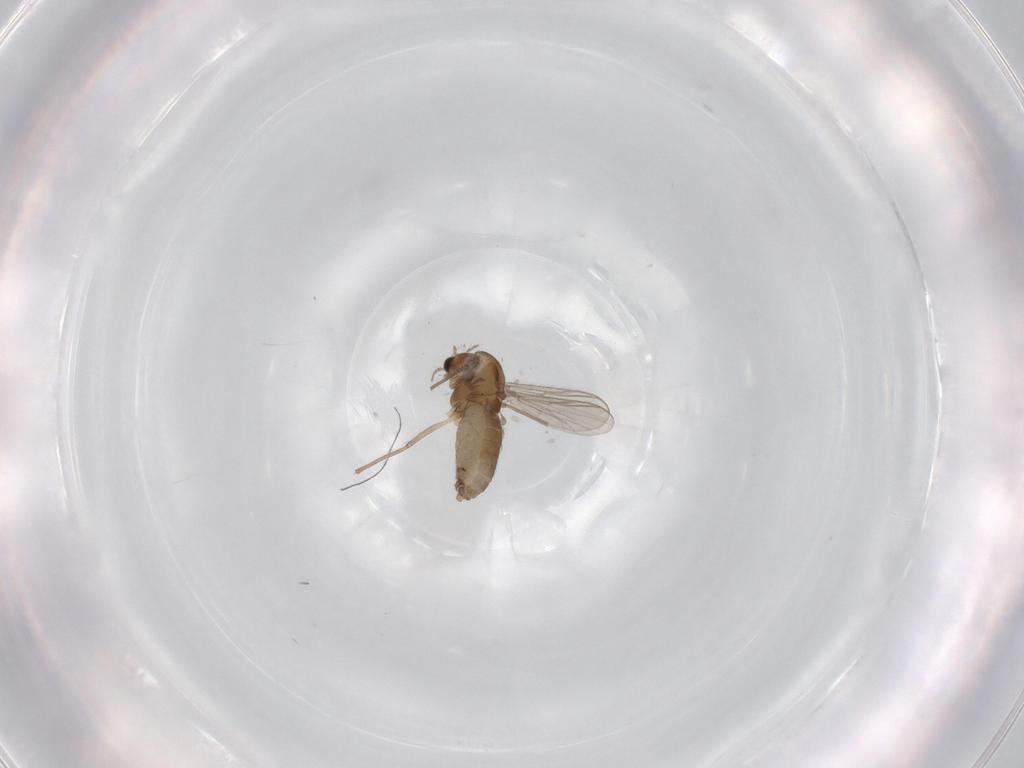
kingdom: Animalia
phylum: Arthropoda
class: Insecta
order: Diptera
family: Chironomidae
